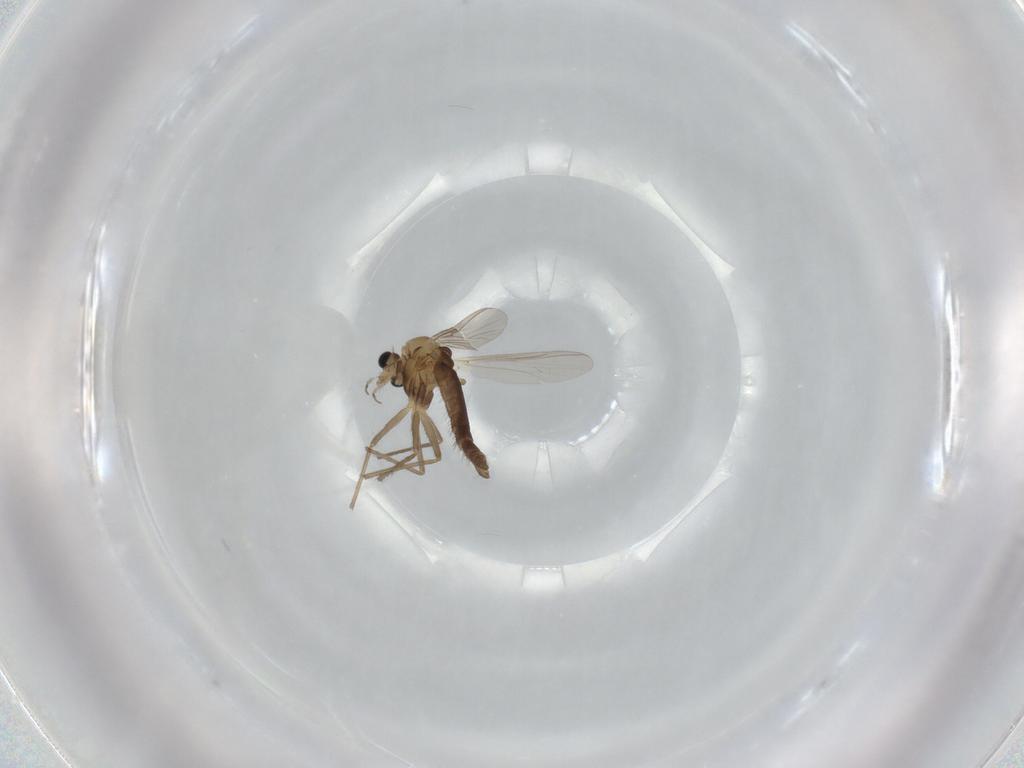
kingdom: Animalia
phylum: Arthropoda
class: Insecta
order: Diptera
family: Chironomidae
